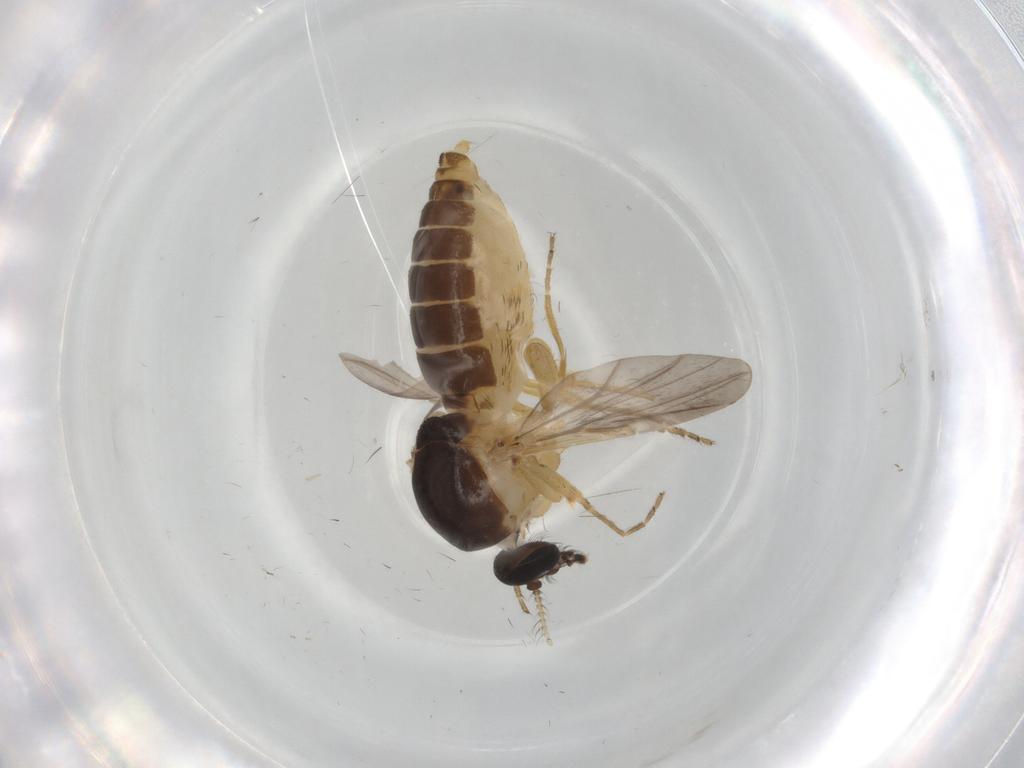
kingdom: Animalia
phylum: Arthropoda
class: Insecta
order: Diptera
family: Ceratopogonidae
